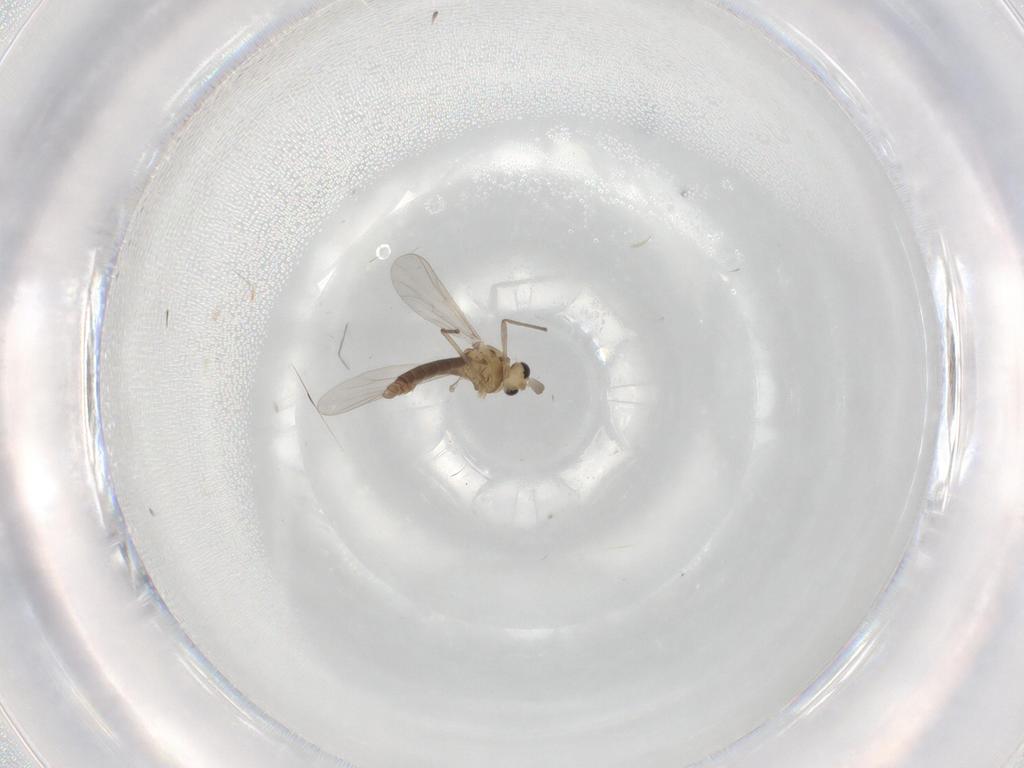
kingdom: Animalia
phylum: Arthropoda
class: Insecta
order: Diptera
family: Chironomidae
